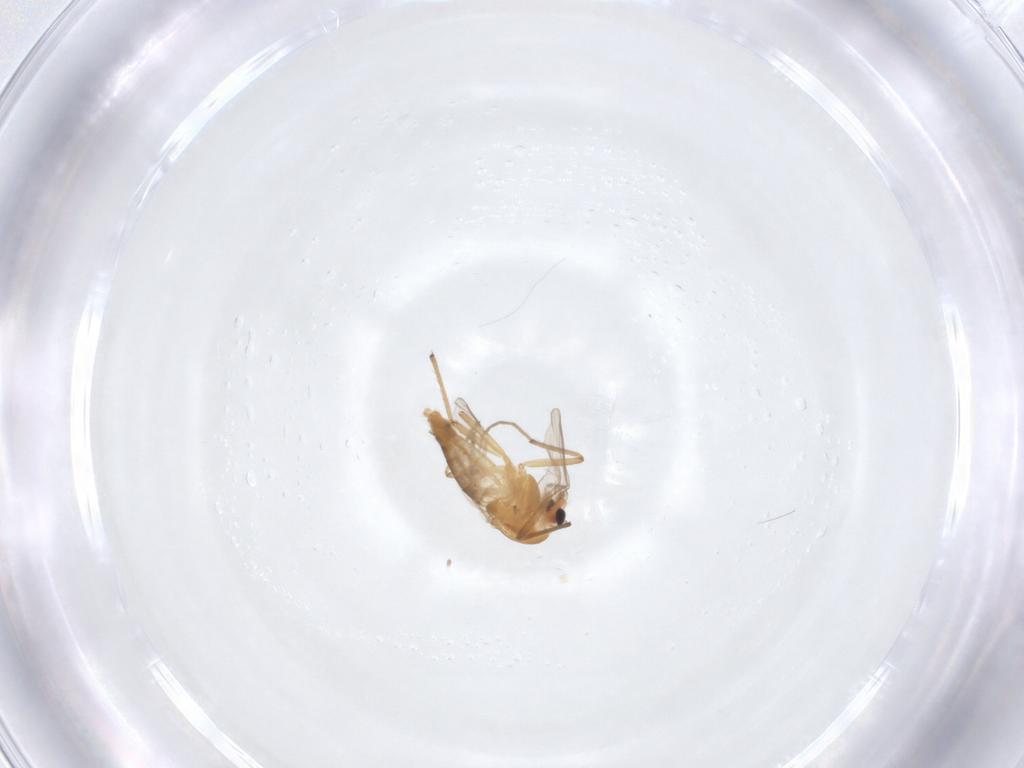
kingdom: Animalia
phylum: Arthropoda
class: Insecta
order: Diptera
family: Chironomidae
